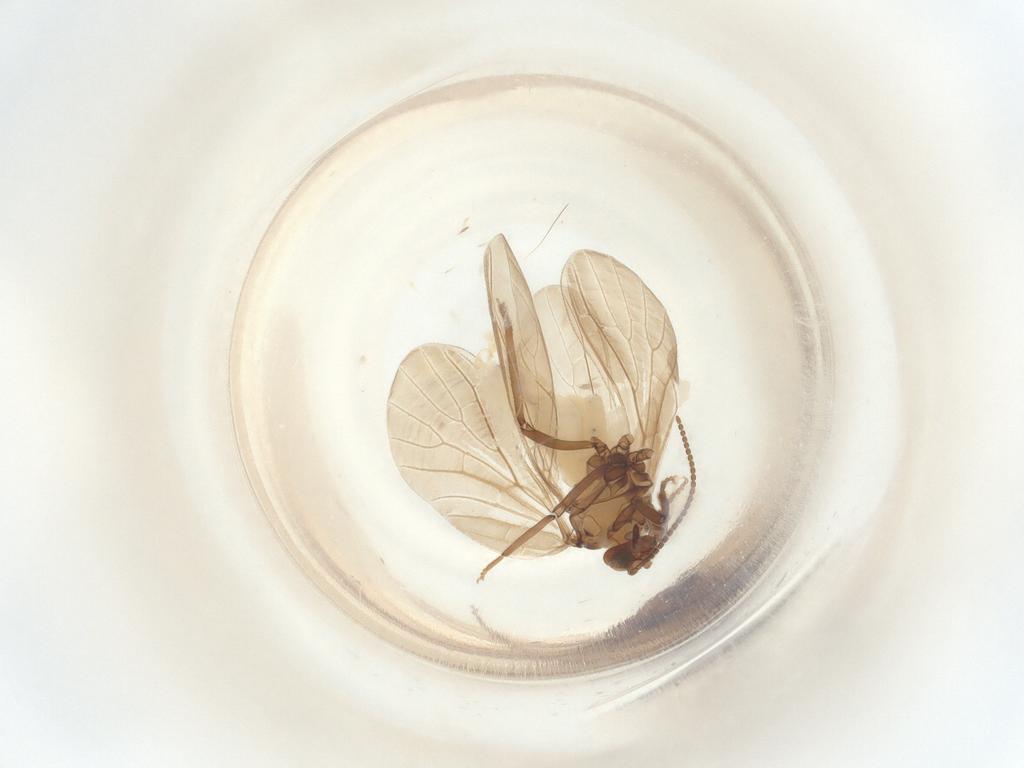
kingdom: Animalia
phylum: Arthropoda
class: Insecta
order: Neuroptera
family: Coniopterygidae
